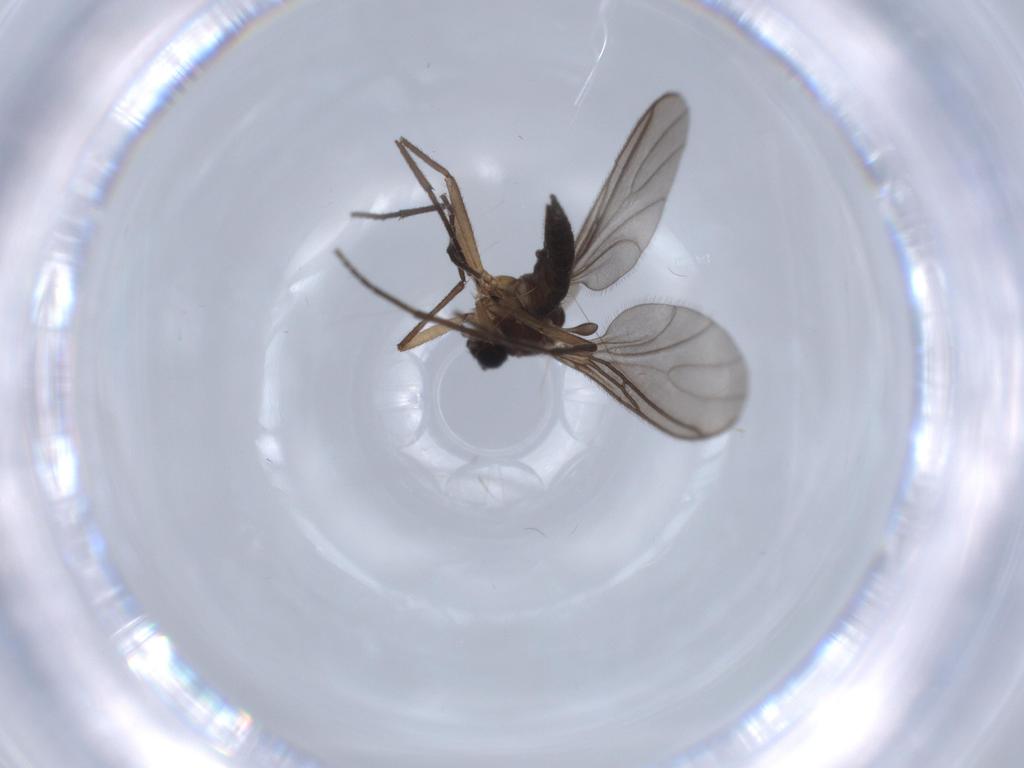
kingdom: Animalia
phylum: Arthropoda
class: Insecta
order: Diptera
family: Sciaridae
